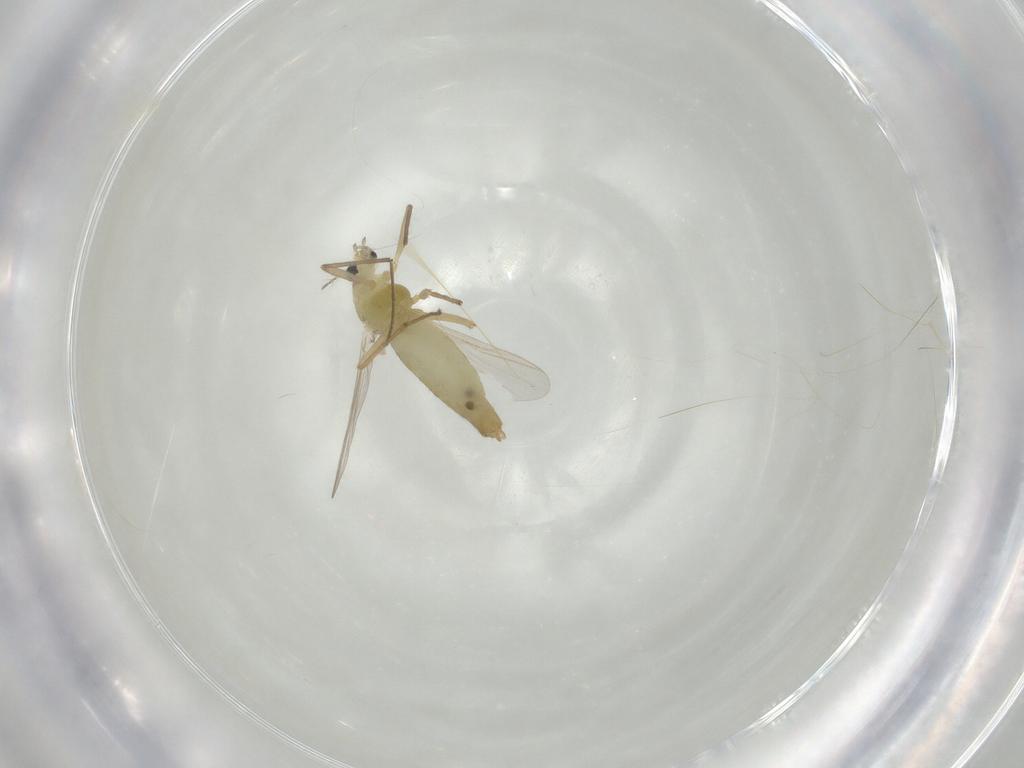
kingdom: Animalia
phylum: Arthropoda
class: Insecta
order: Diptera
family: Chironomidae
